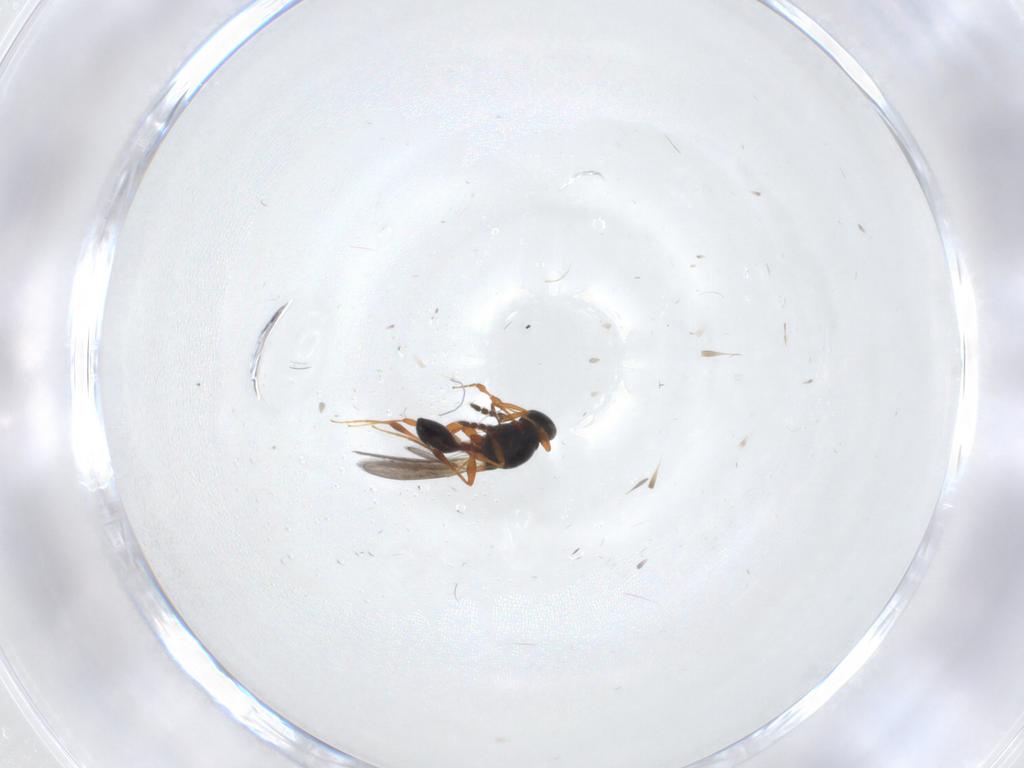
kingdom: Animalia
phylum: Arthropoda
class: Insecta
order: Hymenoptera
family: Platygastridae
